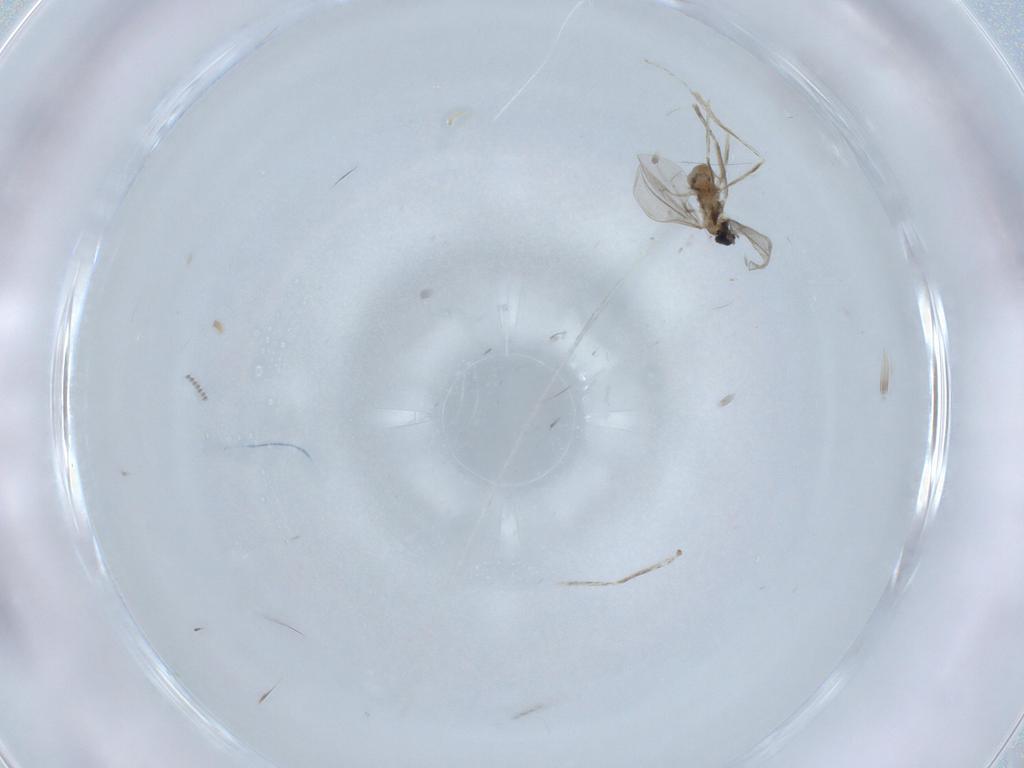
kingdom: Animalia
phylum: Arthropoda
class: Insecta
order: Diptera
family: Cecidomyiidae
